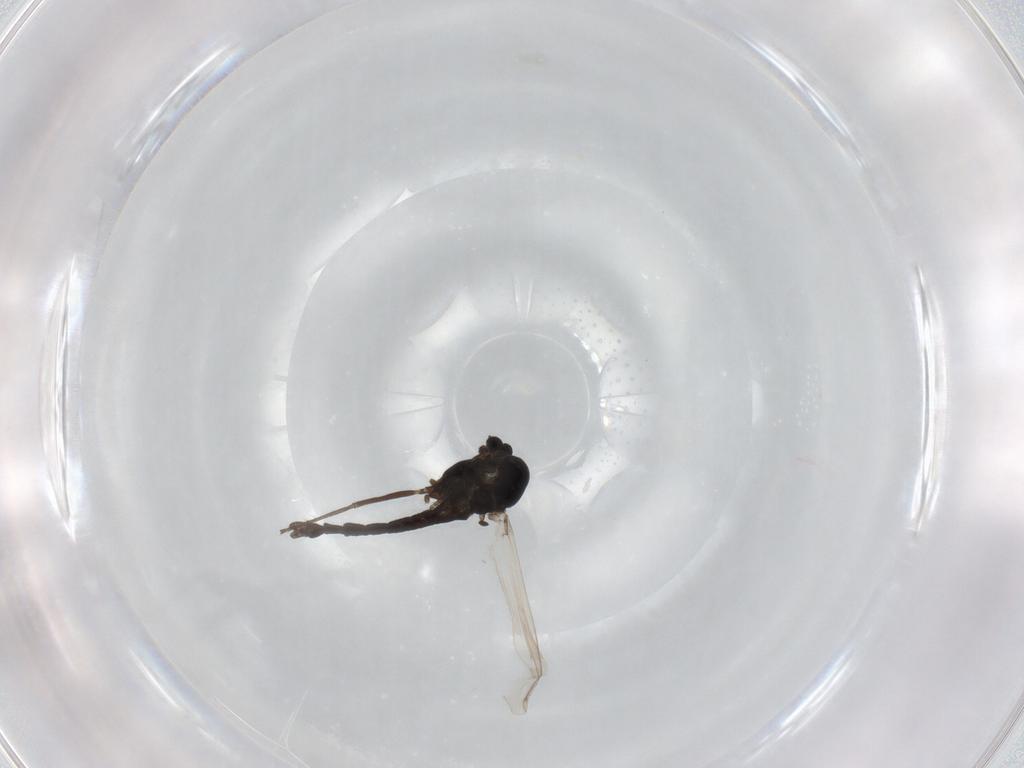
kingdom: Animalia
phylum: Arthropoda
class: Insecta
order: Diptera
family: Chironomidae
